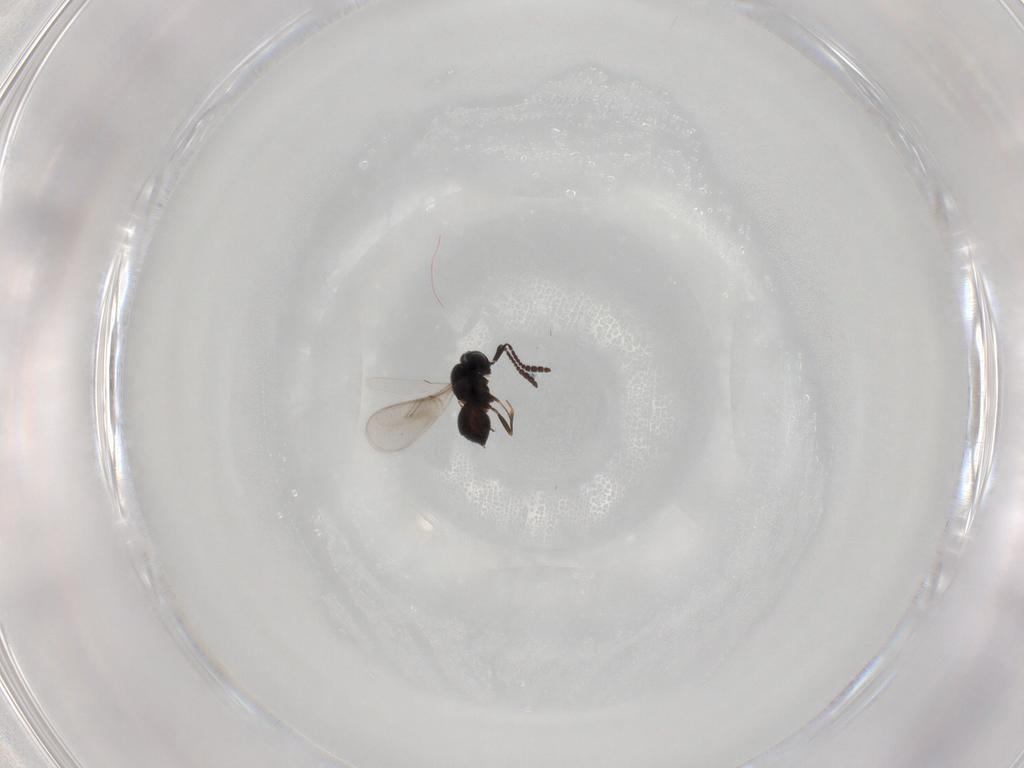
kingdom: Animalia
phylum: Arthropoda
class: Insecta
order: Hymenoptera
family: Scelionidae
